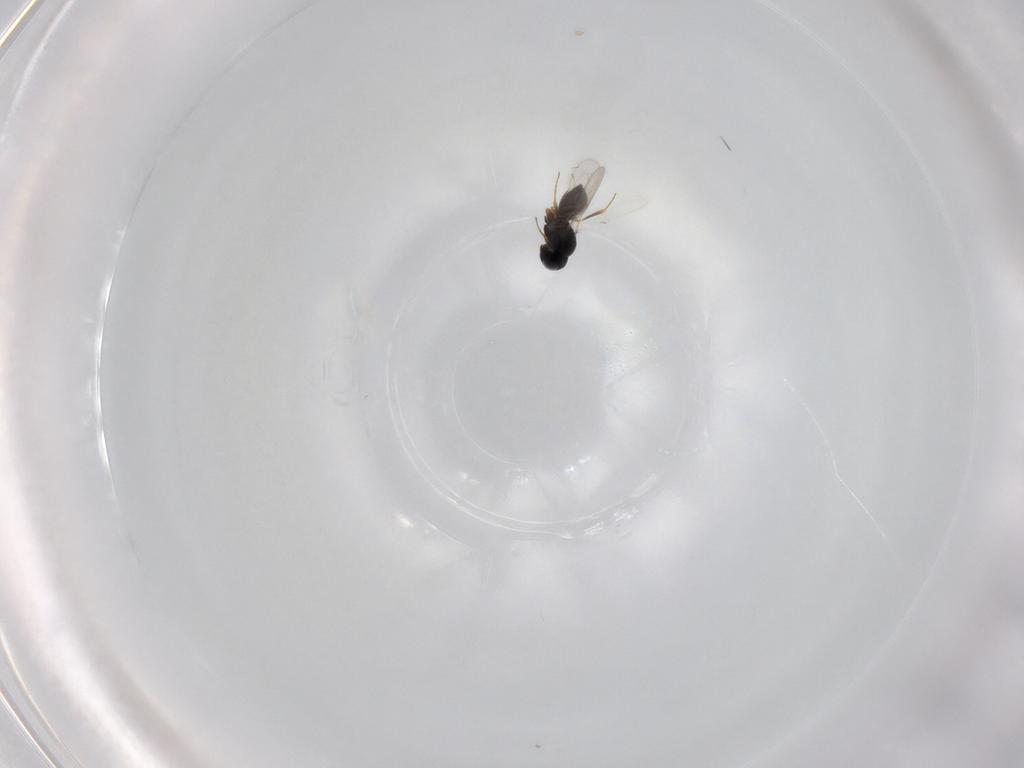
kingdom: Animalia
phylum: Arthropoda
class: Insecta
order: Hymenoptera
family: Scelionidae
